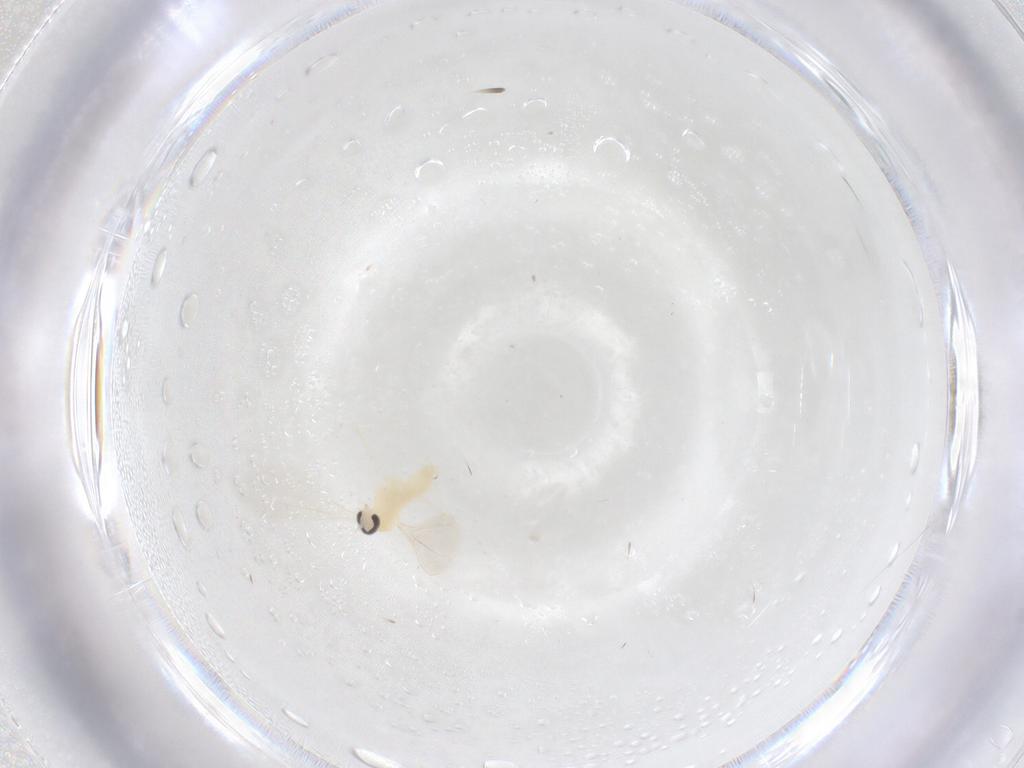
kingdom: Animalia
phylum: Arthropoda
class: Insecta
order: Diptera
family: Cecidomyiidae
